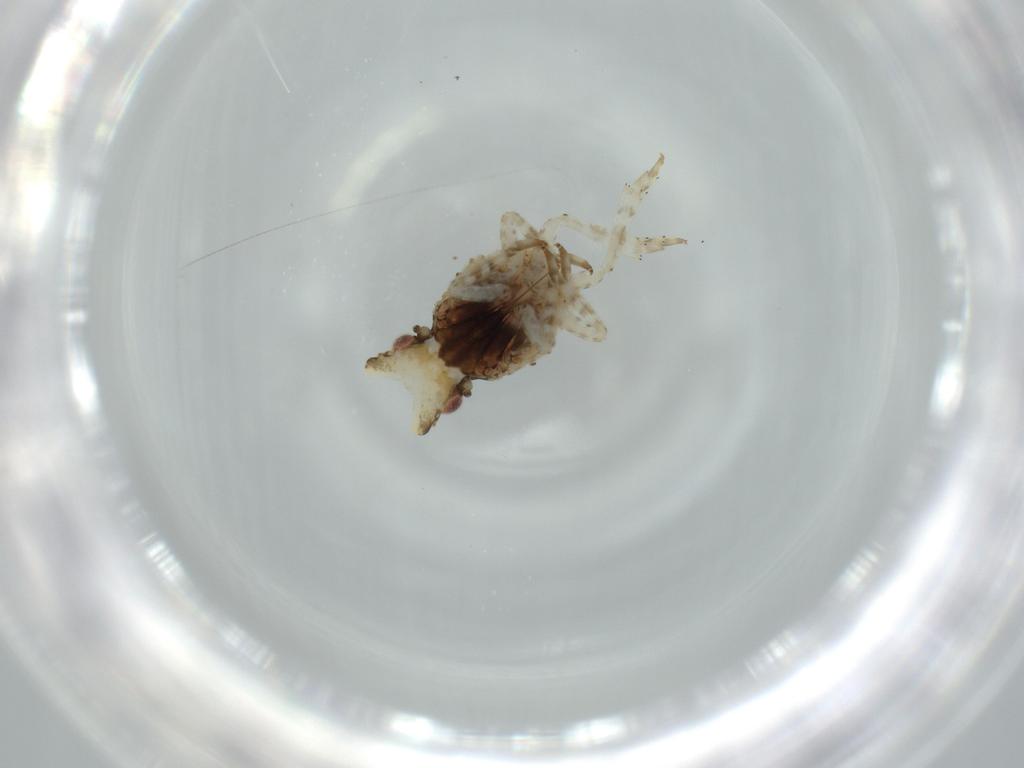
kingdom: Animalia
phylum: Arthropoda
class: Insecta
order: Hemiptera
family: Fulgoridae
